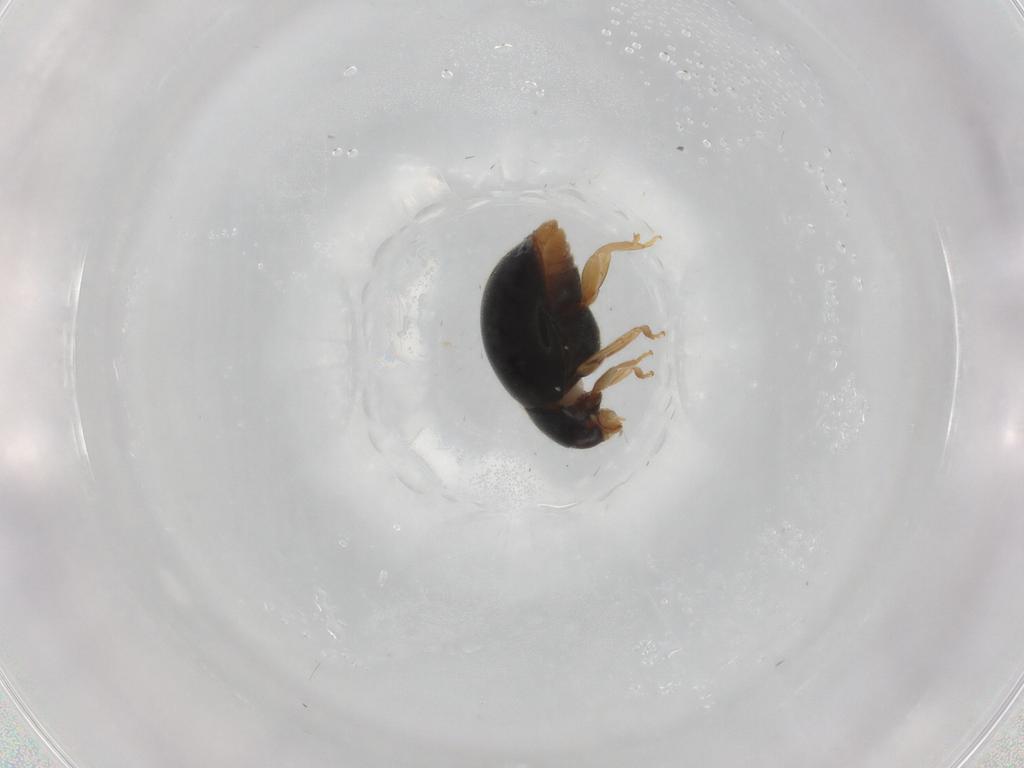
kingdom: Animalia
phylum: Arthropoda
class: Insecta
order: Coleoptera
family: Coccinellidae
